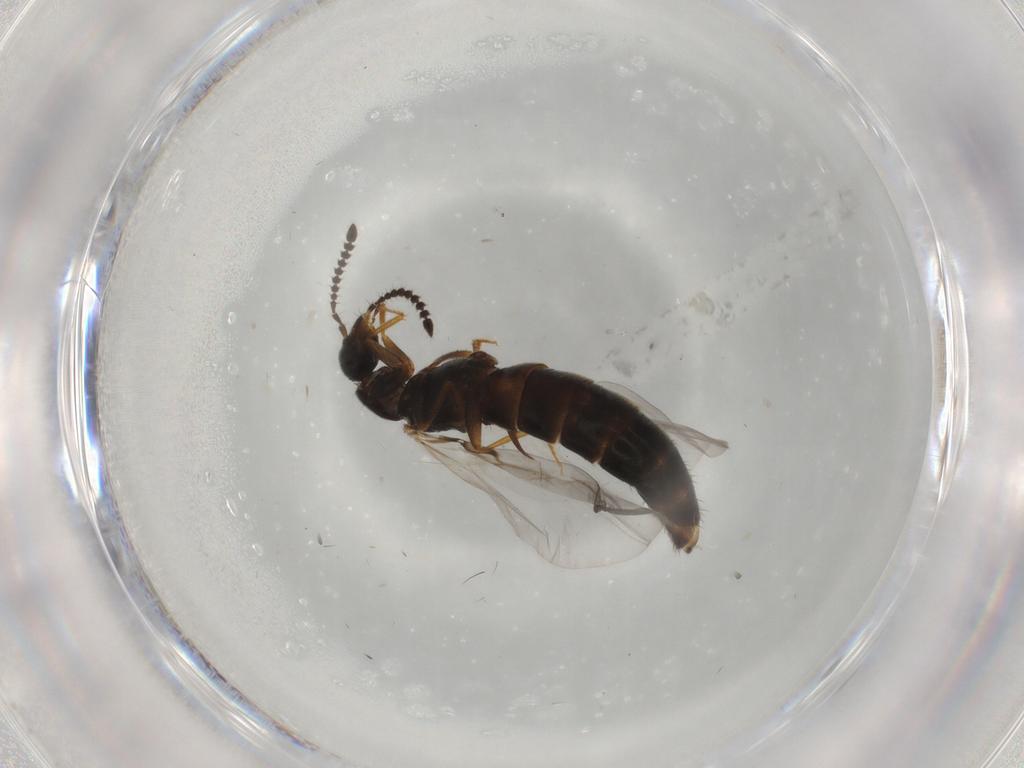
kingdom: Animalia
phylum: Arthropoda
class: Insecta
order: Coleoptera
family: Staphylinidae
